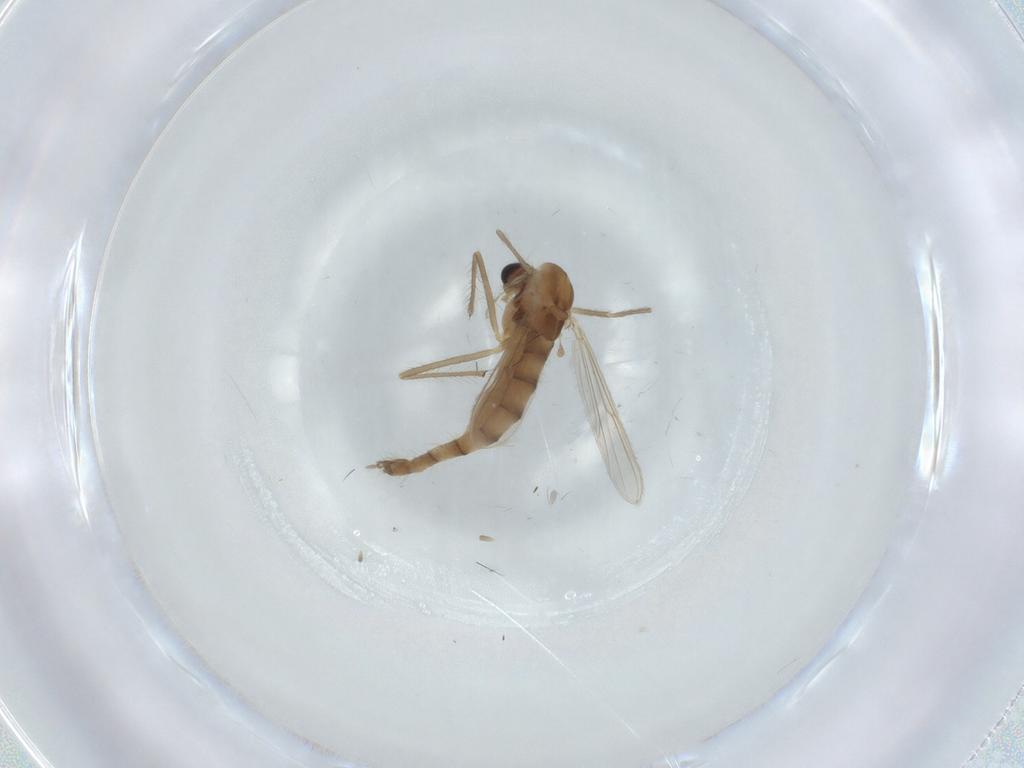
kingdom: Animalia
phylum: Arthropoda
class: Insecta
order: Diptera
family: Chironomidae
